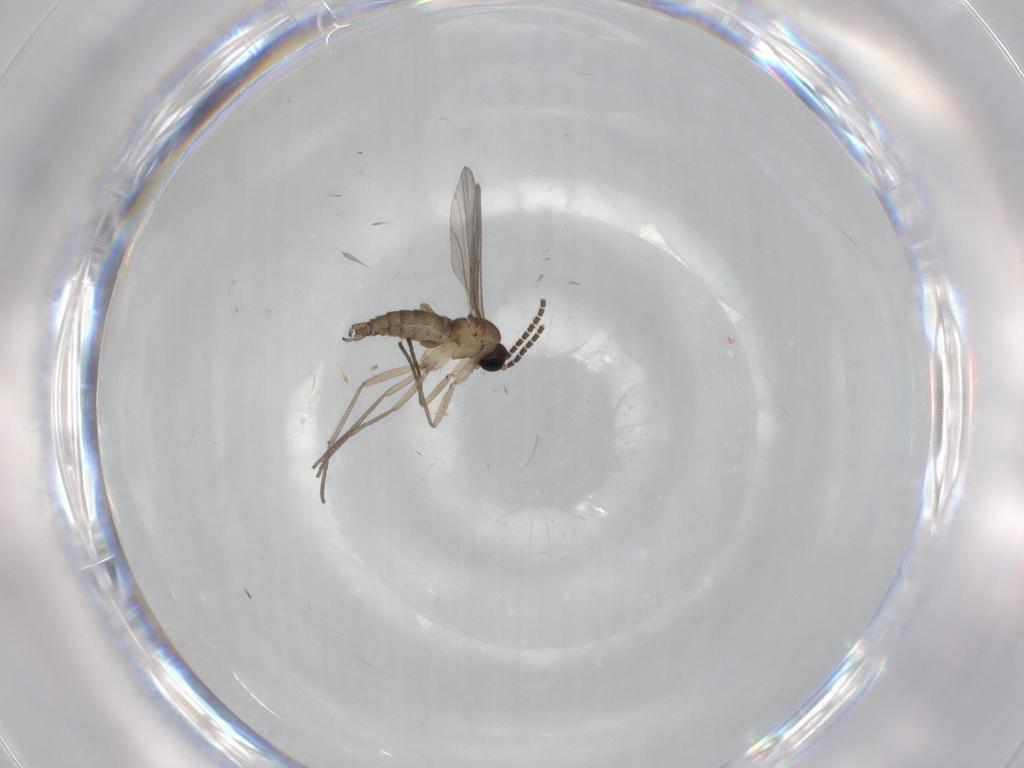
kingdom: Animalia
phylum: Arthropoda
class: Insecta
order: Diptera
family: Sciaridae
